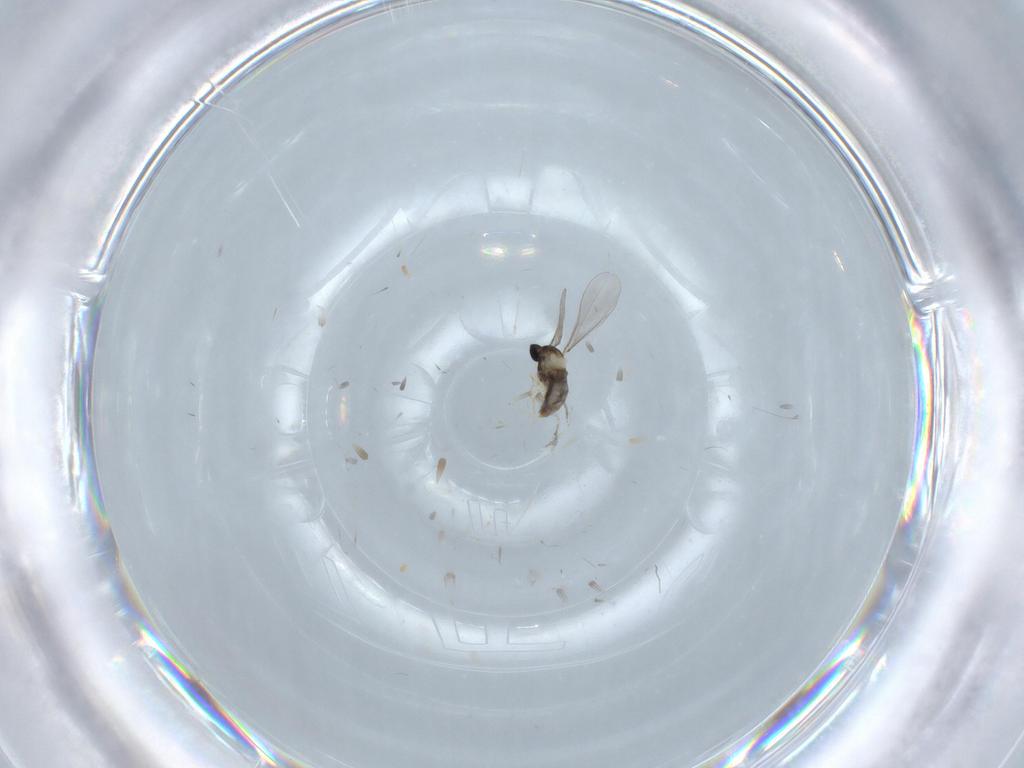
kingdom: Animalia
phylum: Arthropoda
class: Insecta
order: Diptera
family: Chironomidae
